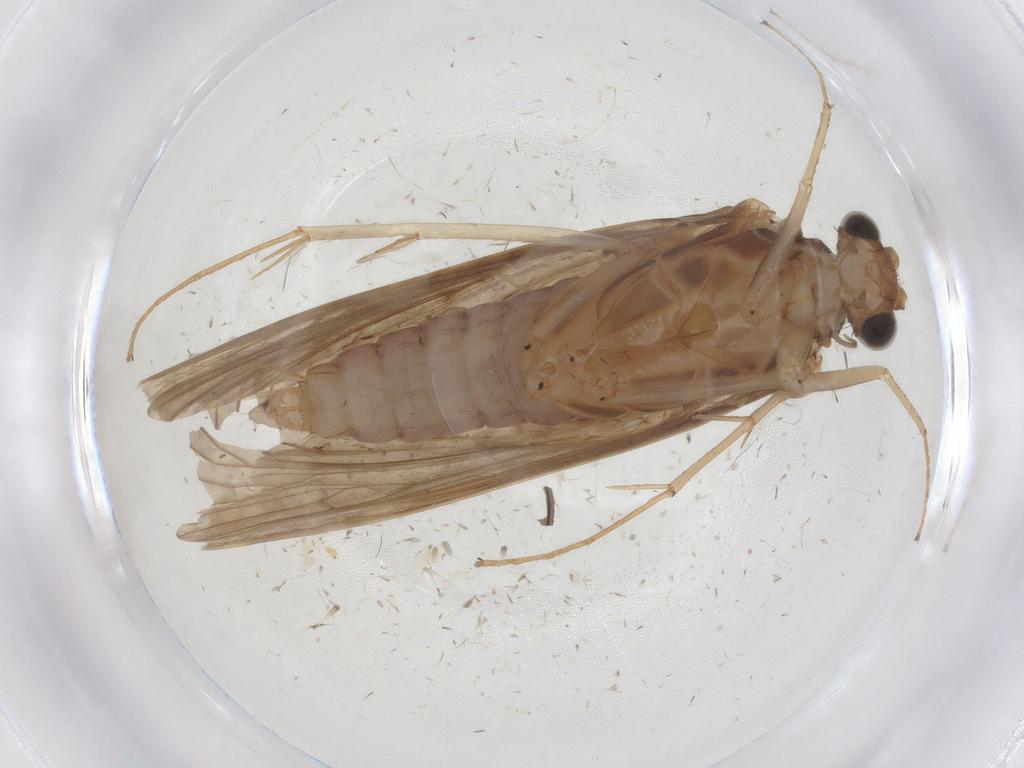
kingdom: Animalia
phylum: Arthropoda
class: Insecta
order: Trichoptera
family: Hydropsychidae
